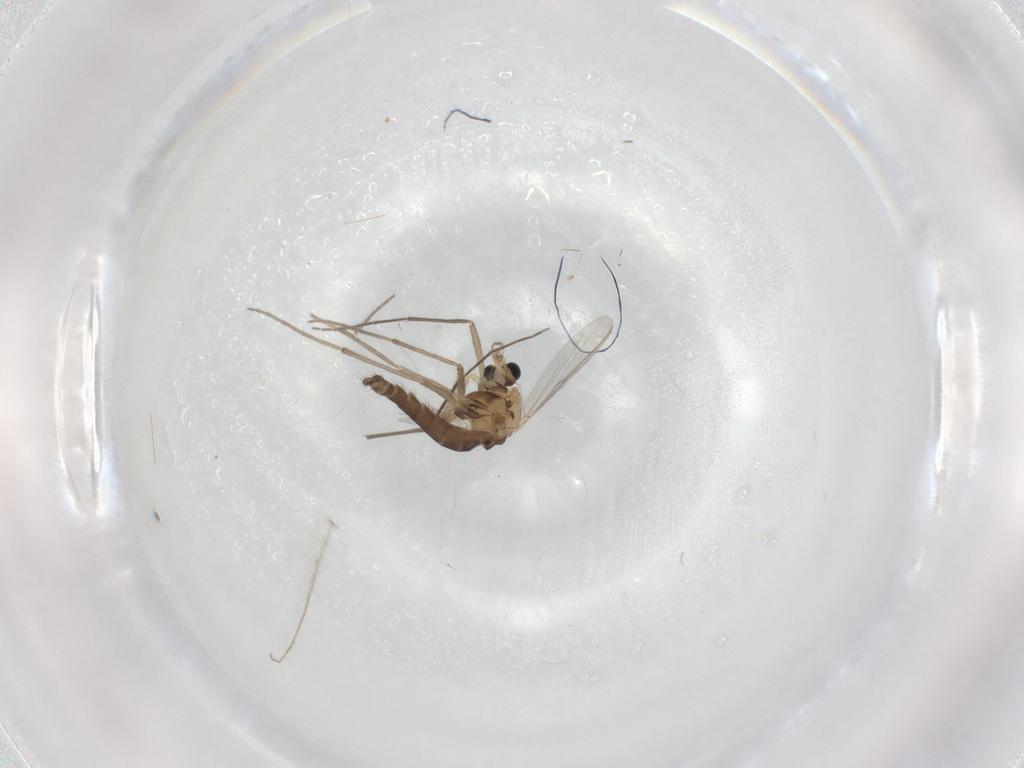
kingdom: Animalia
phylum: Arthropoda
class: Insecta
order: Diptera
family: Chironomidae
